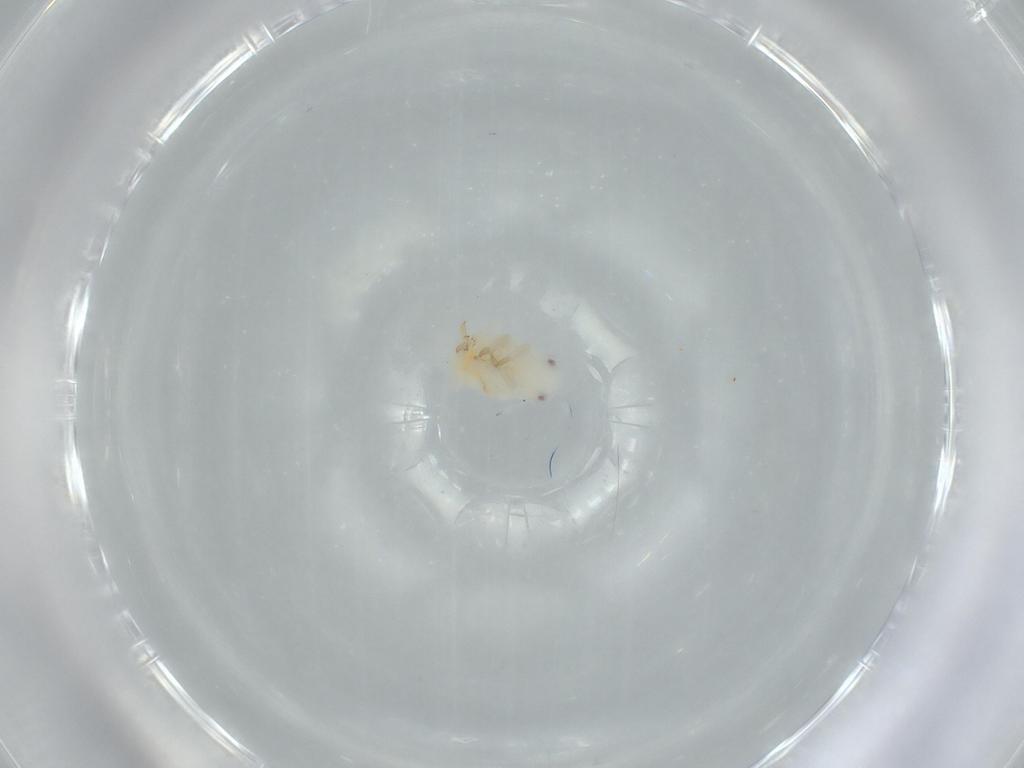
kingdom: Animalia
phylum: Arthropoda
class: Insecta
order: Hemiptera
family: Flatidae
